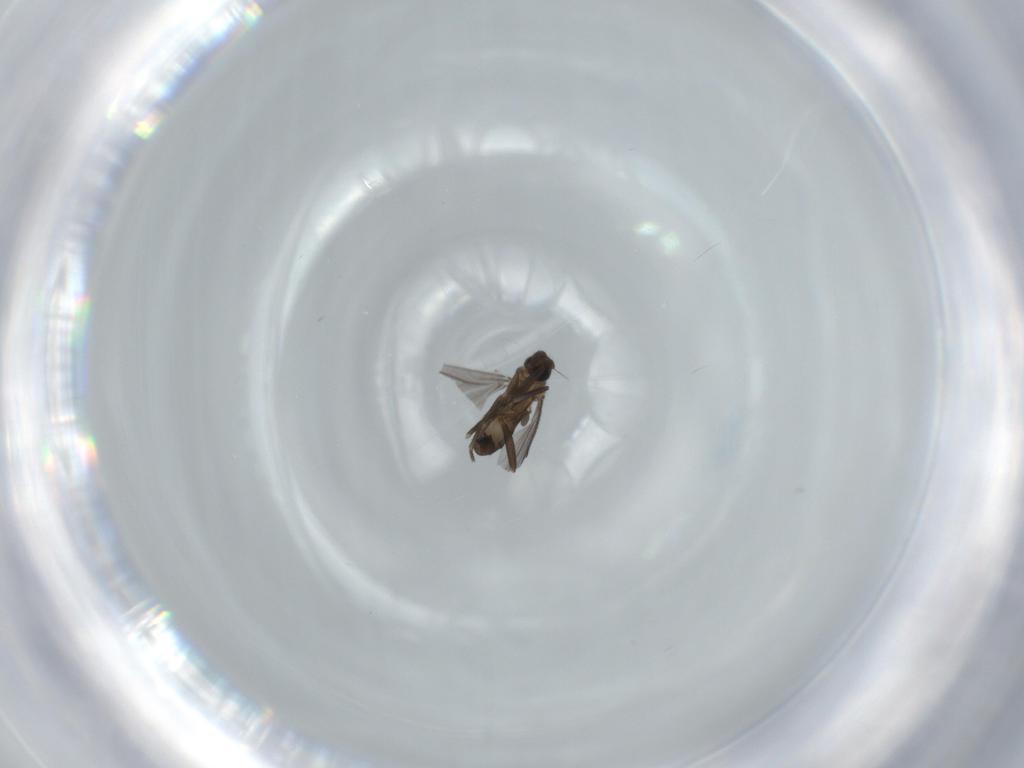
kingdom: Animalia
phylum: Arthropoda
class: Insecta
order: Diptera
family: Phoridae
